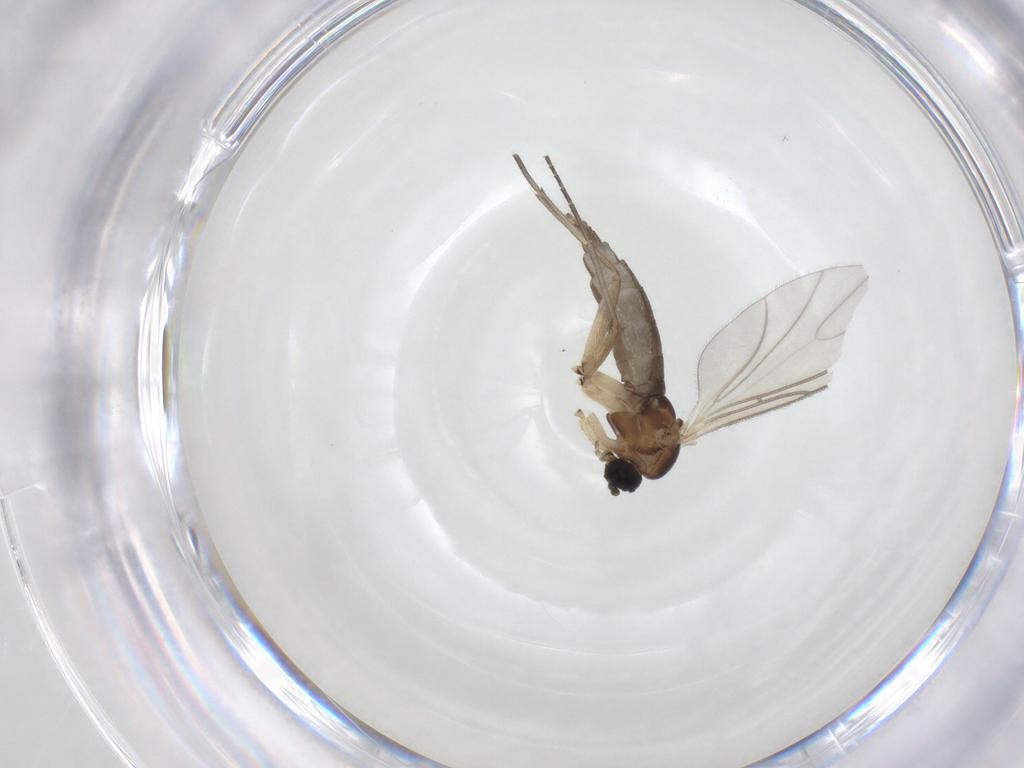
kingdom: Animalia
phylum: Arthropoda
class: Insecta
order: Diptera
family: Sciaridae
